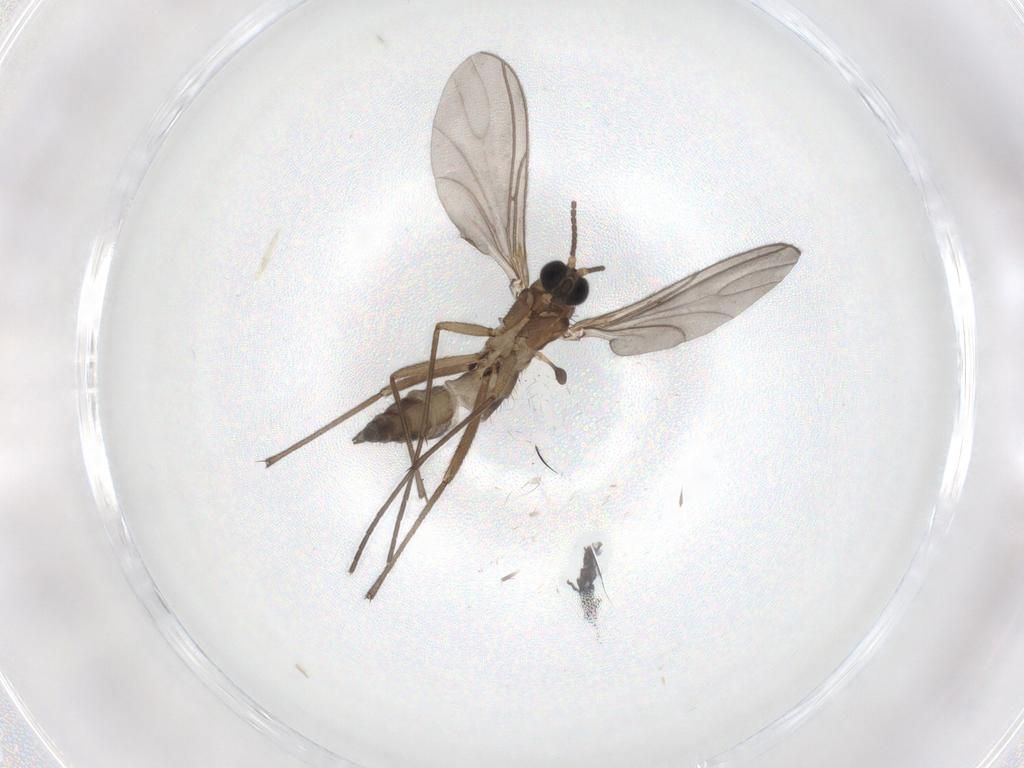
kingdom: Animalia
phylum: Arthropoda
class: Insecta
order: Diptera
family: Sciaridae
